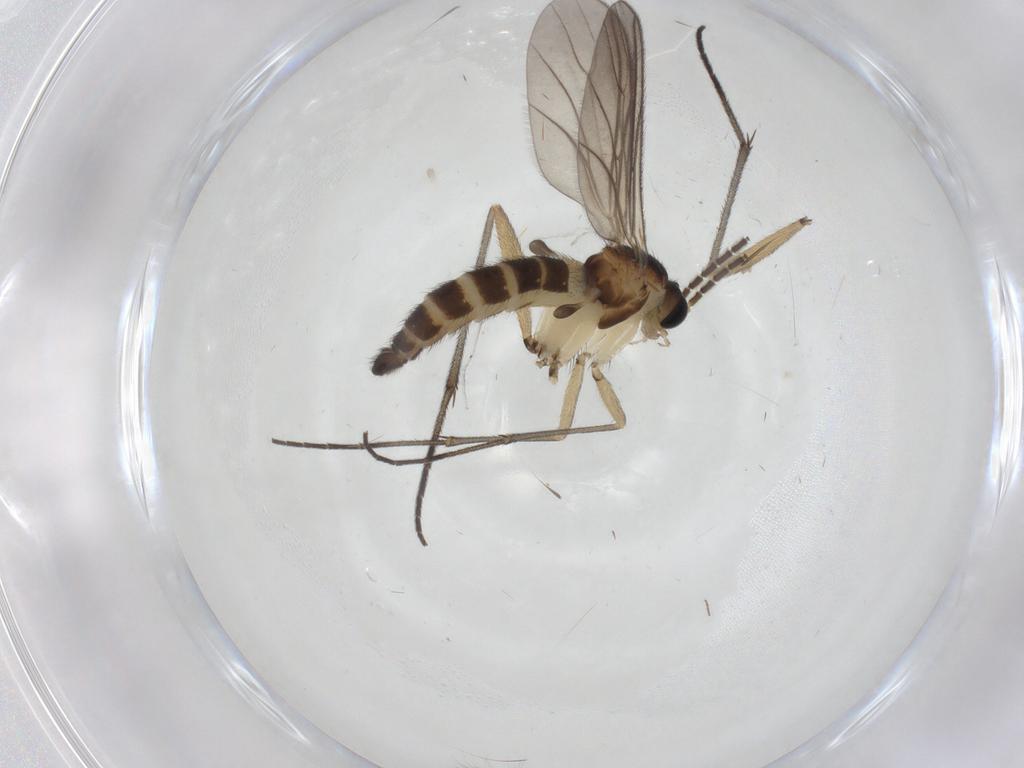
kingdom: Animalia
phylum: Arthropoda
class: Insecta
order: Diptera
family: Sciaridae
